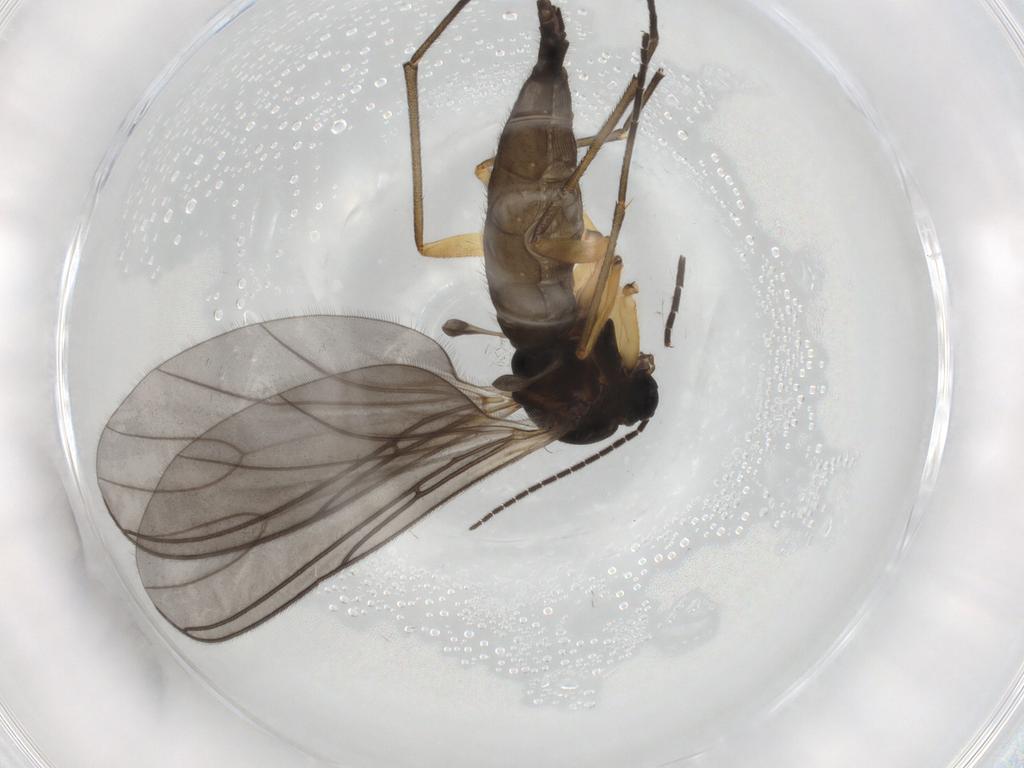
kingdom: Animalia
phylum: Arthropoda
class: Insecta
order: Diptera
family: Sciaridae
